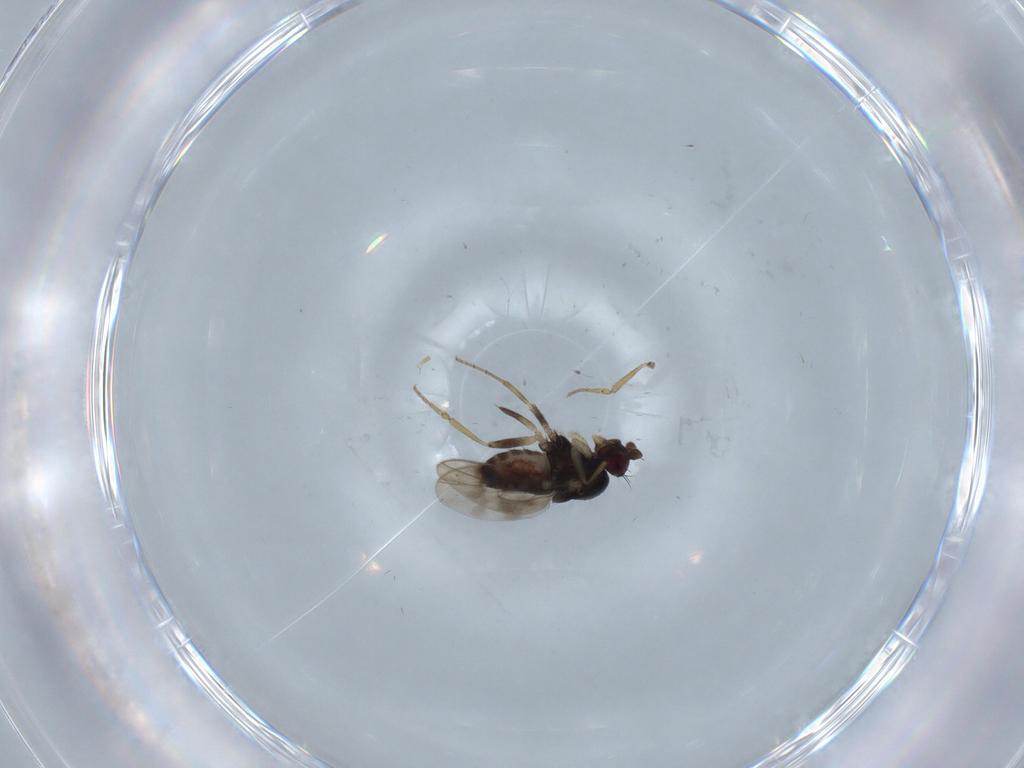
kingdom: Animalia
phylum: Arthropoda
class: Insecta
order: Diptera
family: Sphaeroceridae
